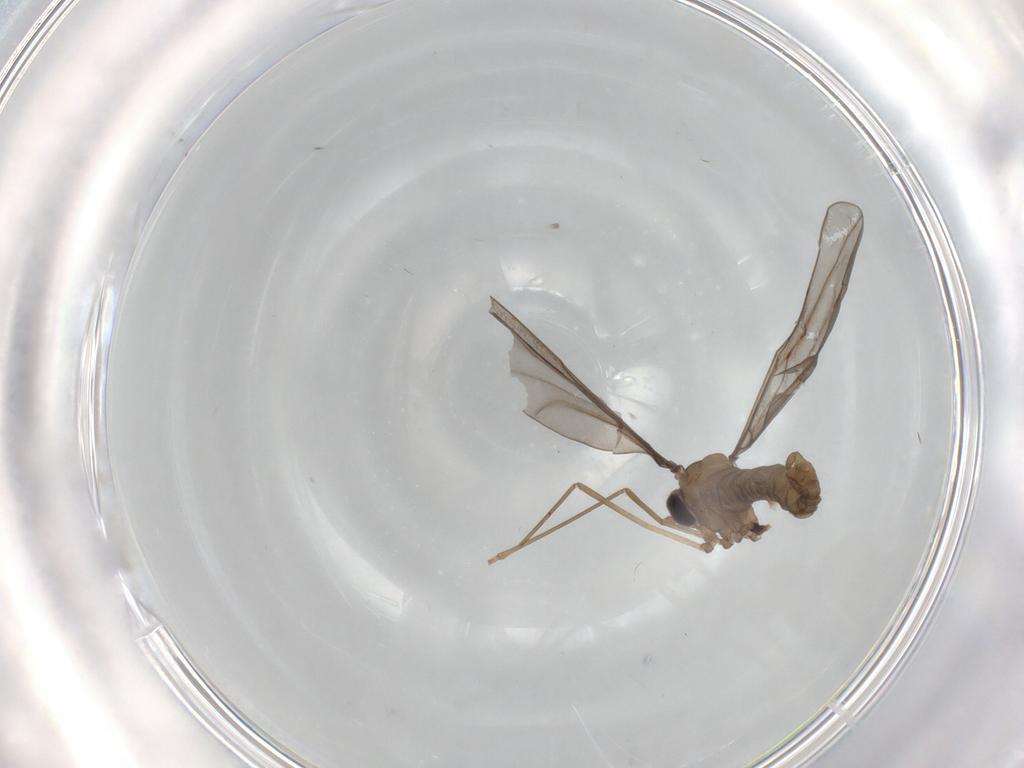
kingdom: Animalia
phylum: Arthropoda
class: Insecta
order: Diptera
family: Cecidomyiidae
